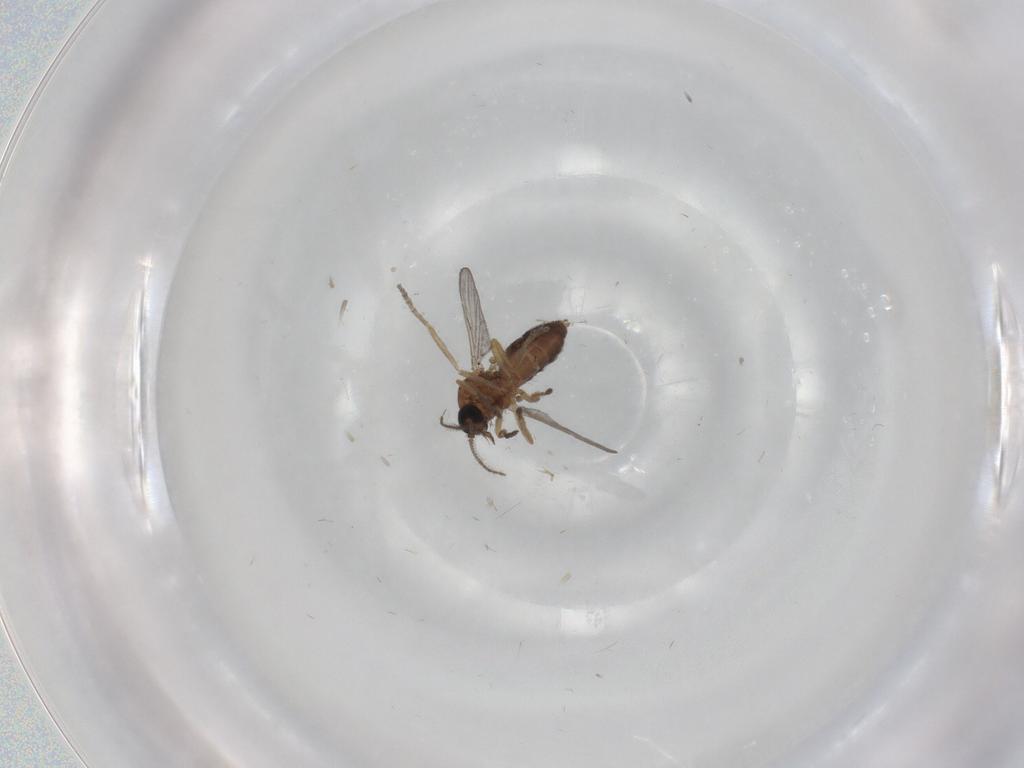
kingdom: Animalia
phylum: Arthropoda
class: Insecta
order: Diptera
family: Ceratopogonidae
